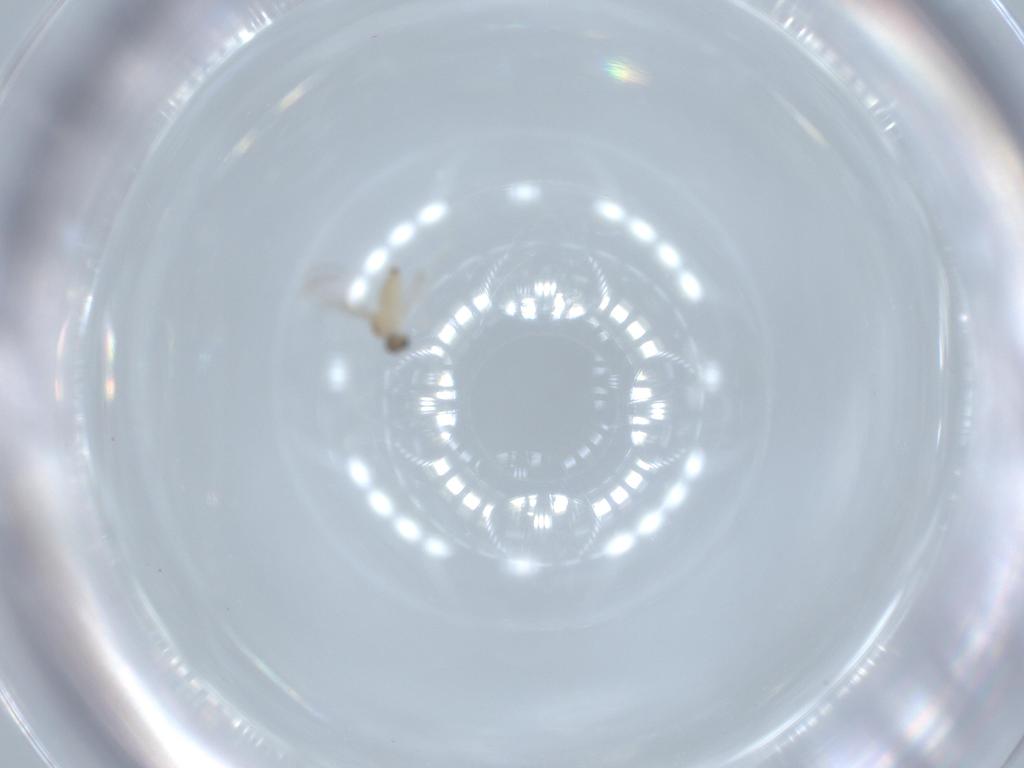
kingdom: Animalia
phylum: Arthropoda
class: Insecta
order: Diptera
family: Cecidomyiidae
